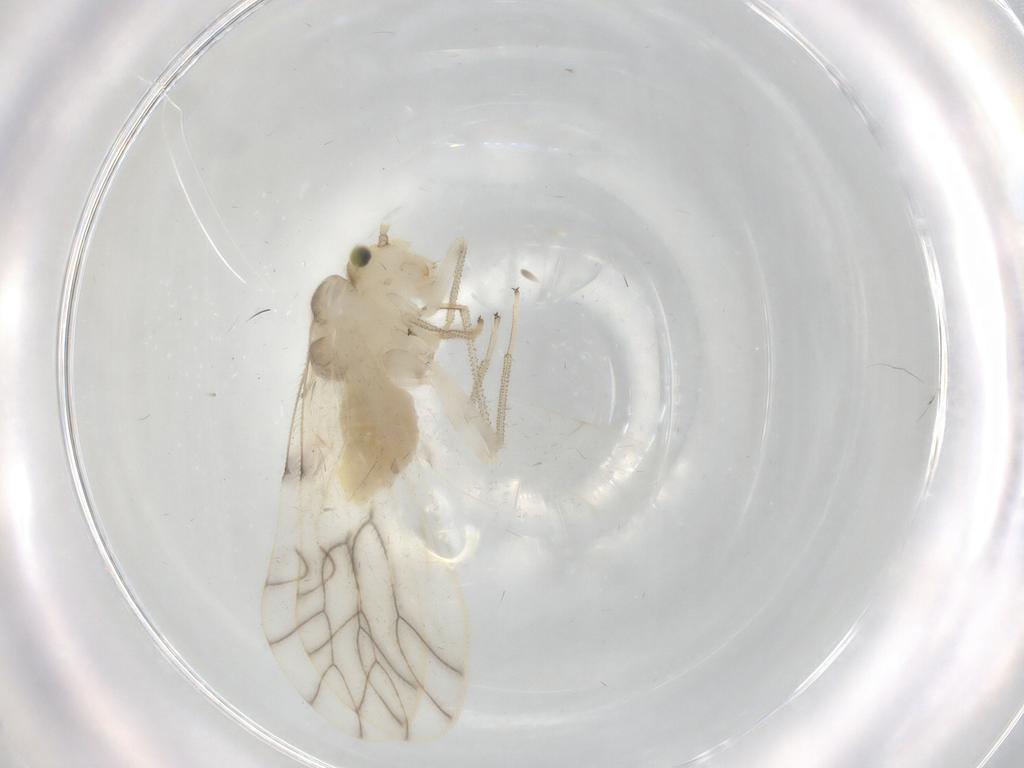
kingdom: Animalia
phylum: Arthropoda
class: Insecta
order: Psocodea
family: Caeciliusidae
